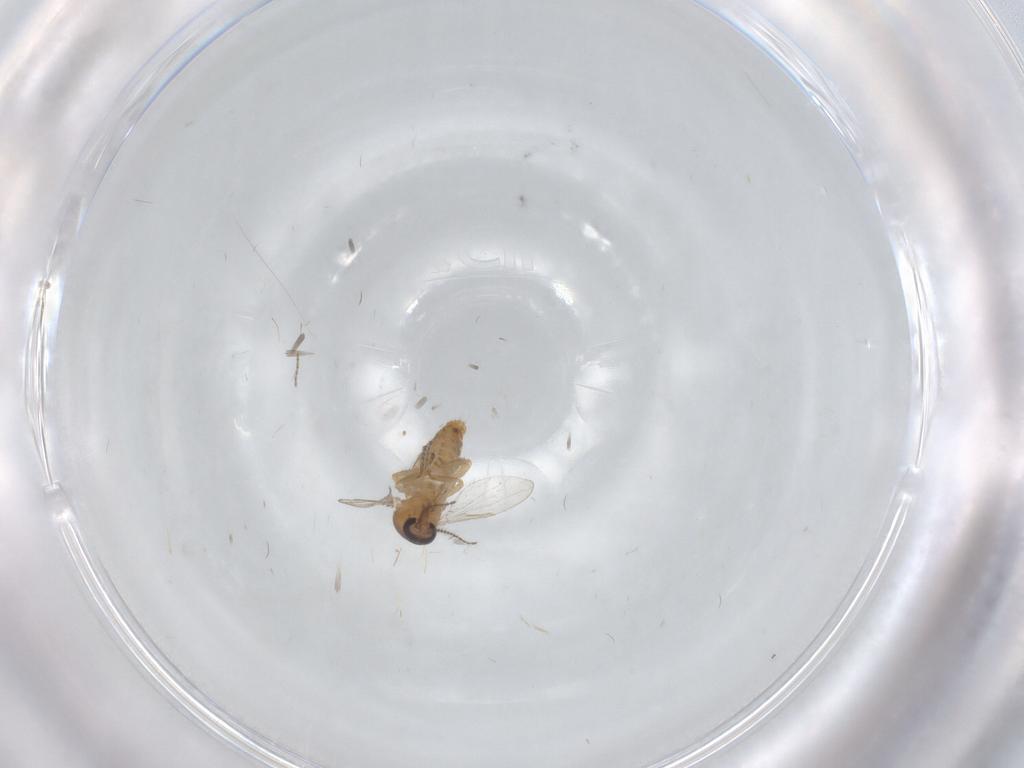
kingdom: Animalia
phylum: Arthropoda
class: Insecta
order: Diptera
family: Ceratopogonidae
